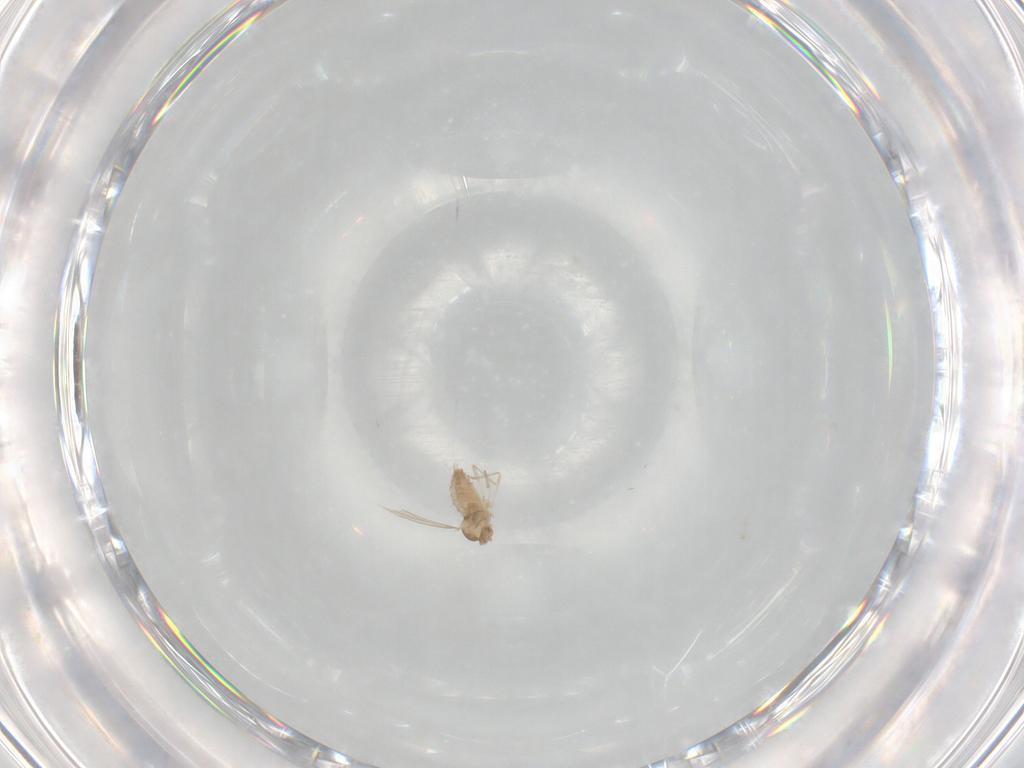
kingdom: Animalia
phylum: Arthropoda
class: Insecta
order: Diptera
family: Cecidomyiidae
